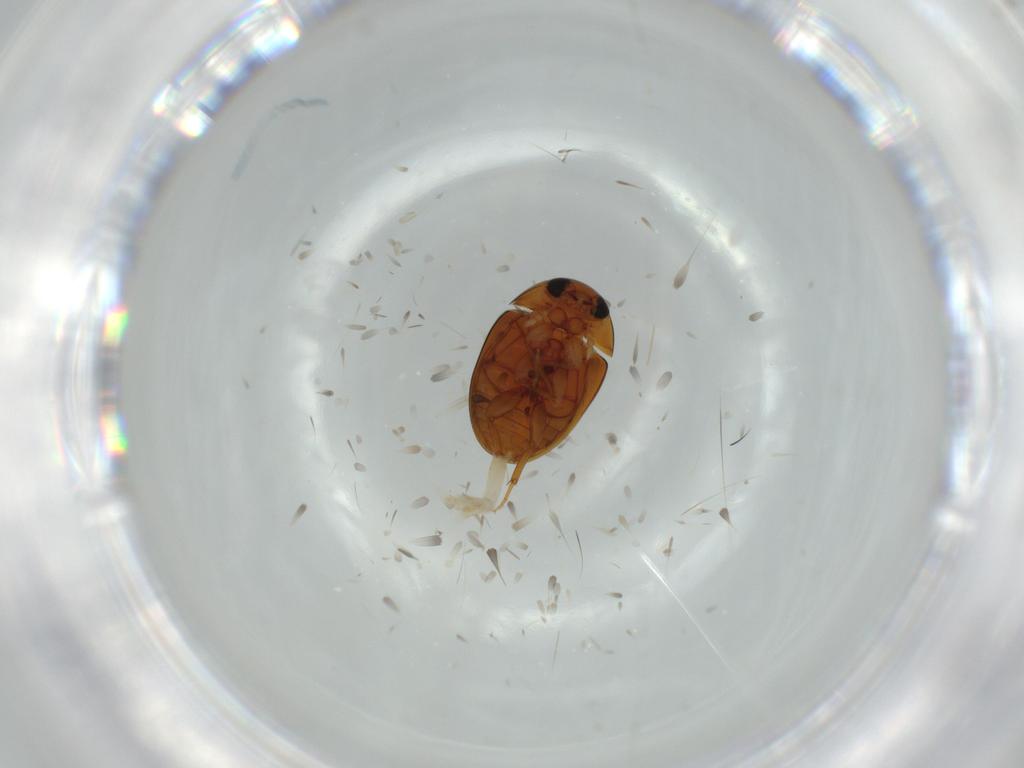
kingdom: Animalia
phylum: Arthropoda
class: Insecta
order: Coleoptera
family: Phalacridae
